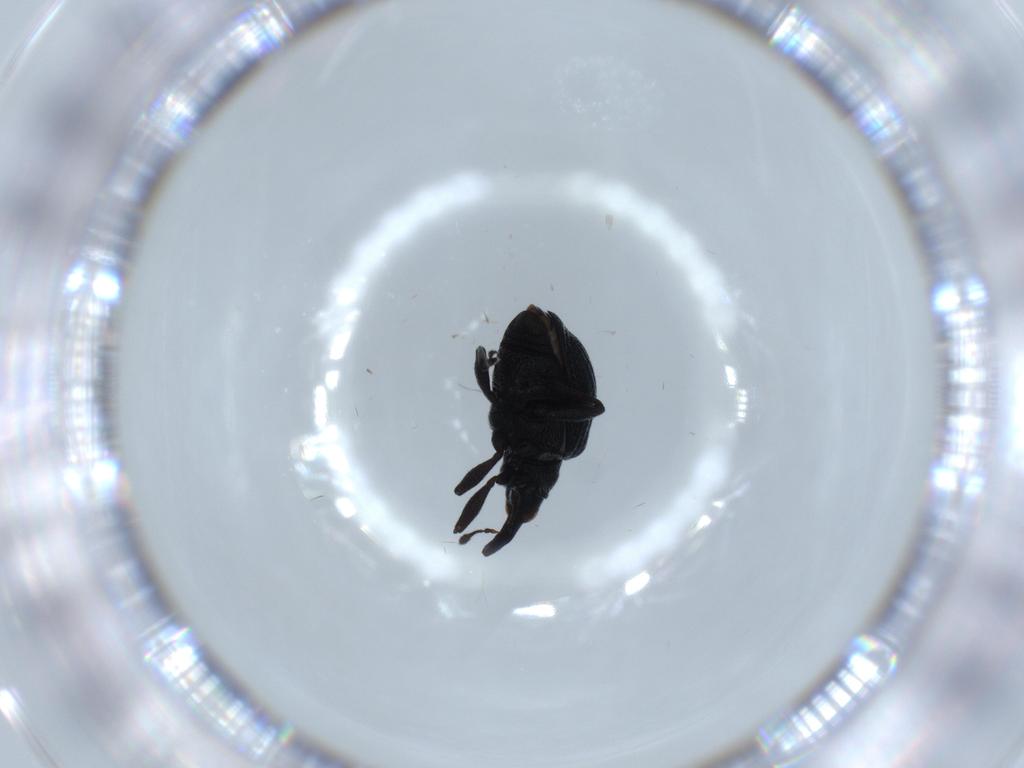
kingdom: Animalia
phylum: Arthropoda
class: Insecta
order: Coleoptera
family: Brentidae
